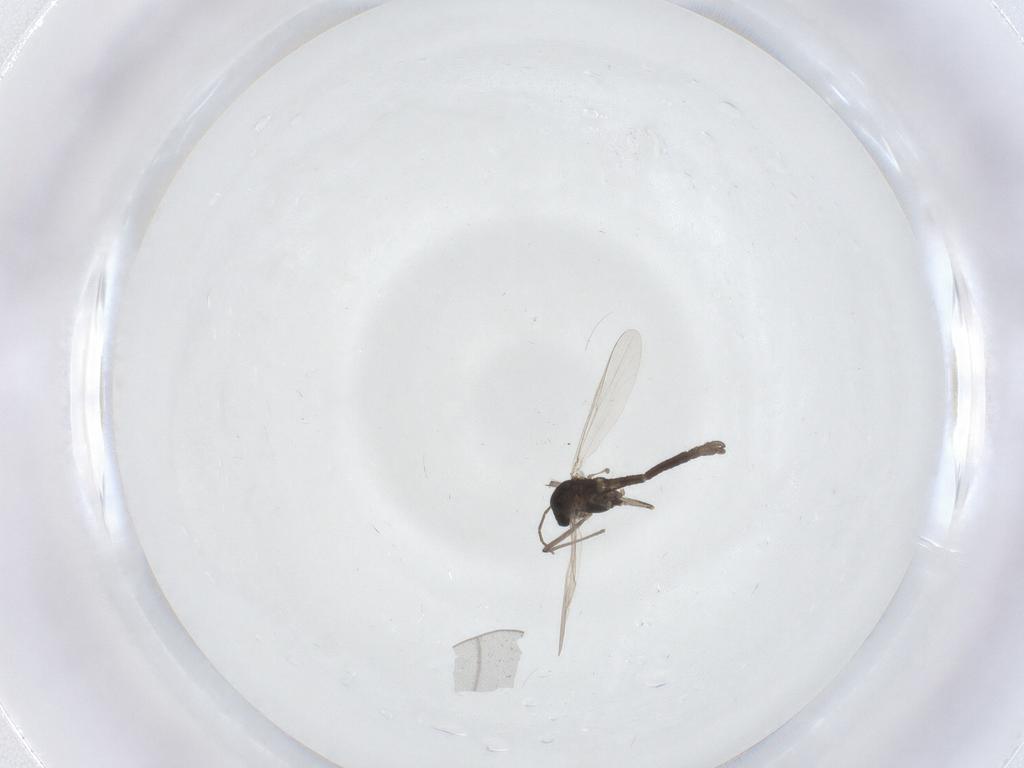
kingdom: Animalia
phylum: Arthropoda
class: Insecta
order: Diptera
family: Chironomidae
